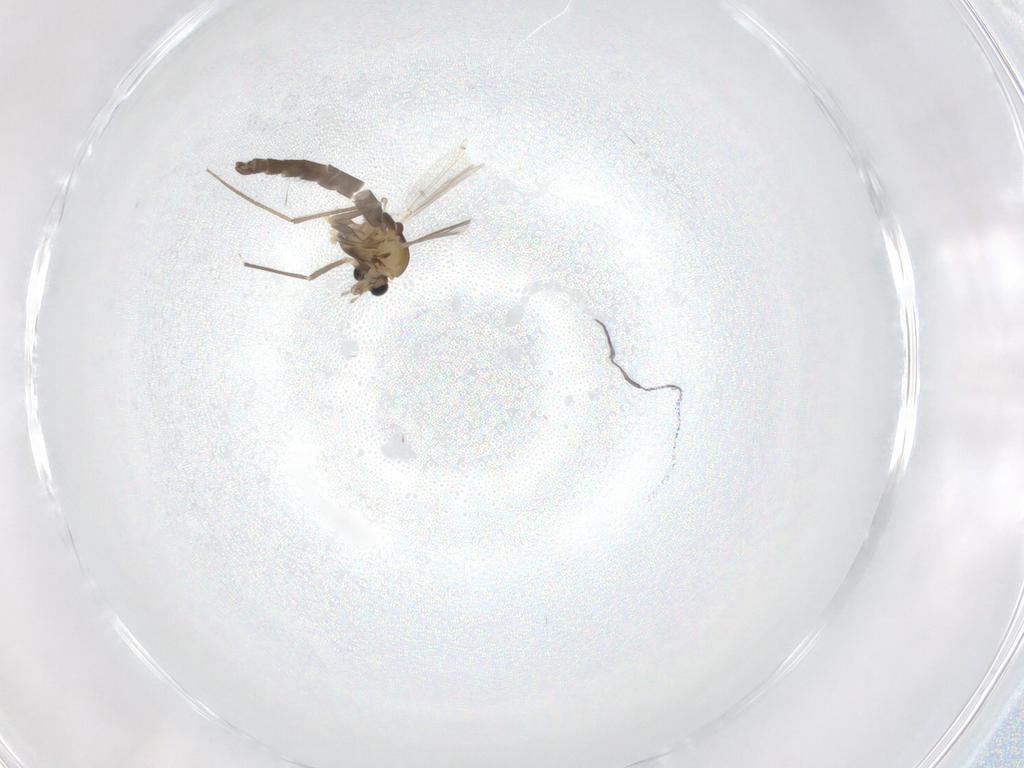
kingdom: Animalia
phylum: Arthropoda
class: Insecta
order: Diptera
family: Chironomidae
